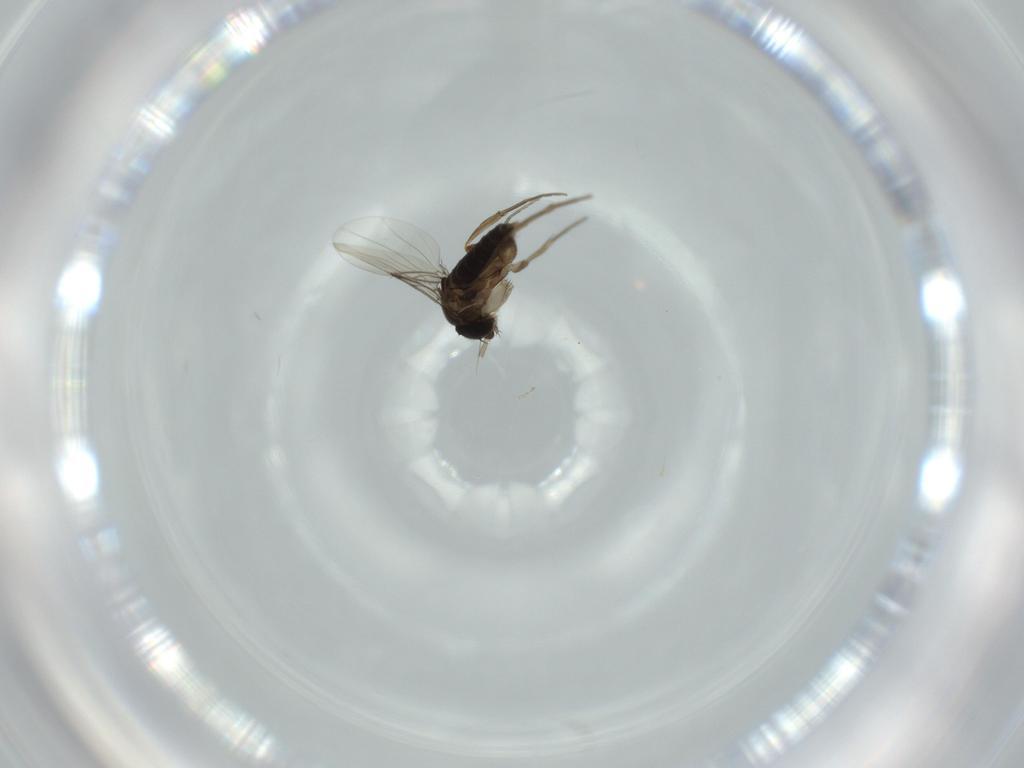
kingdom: Animalia
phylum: Arthropoda
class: Insecta
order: Diptera
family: Phoridae
